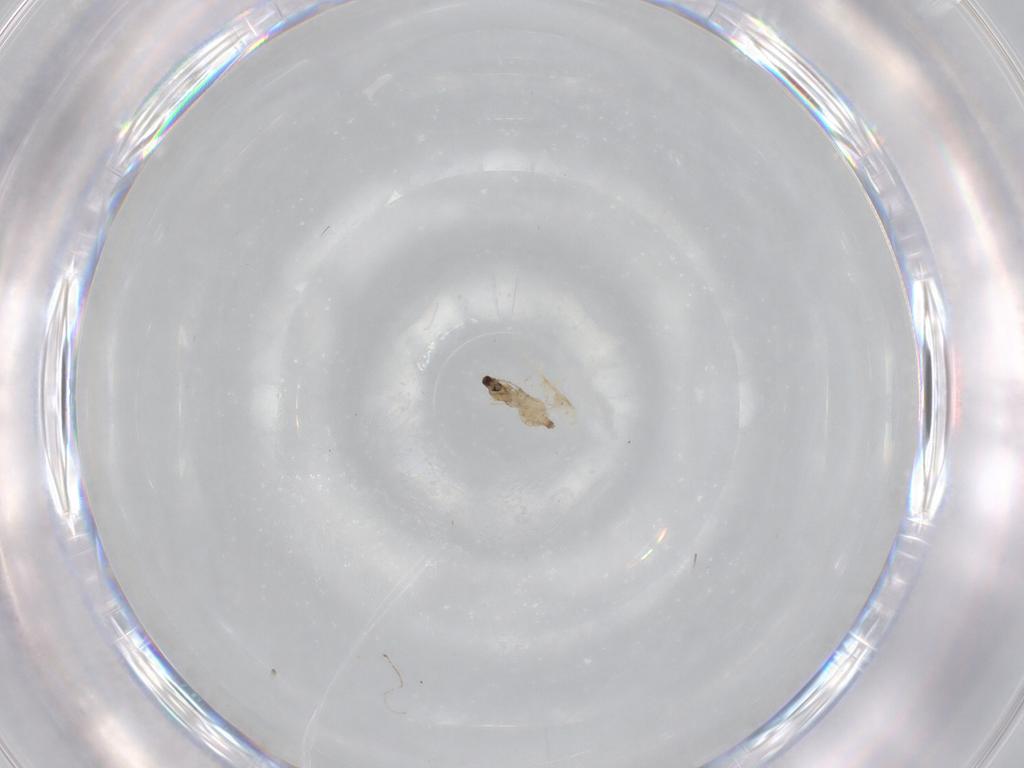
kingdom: Animalia
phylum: Arthropoda
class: Insecta
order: Diptera
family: Cecidomyiidae
